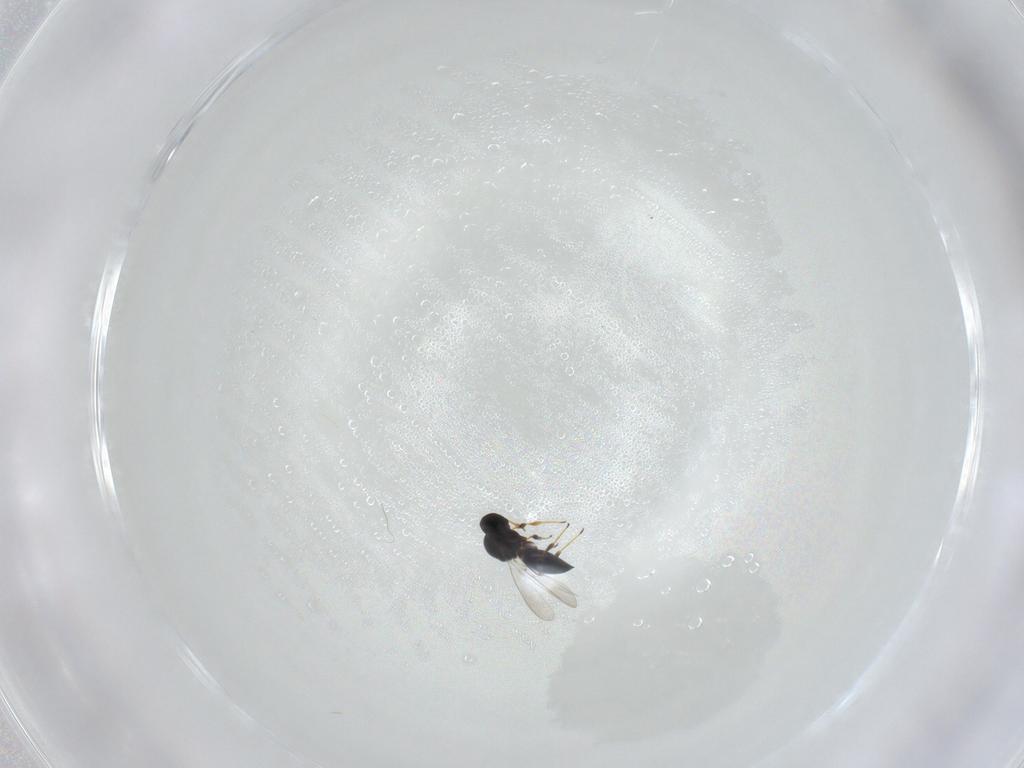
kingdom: Animalia
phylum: Arthropoda
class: Insecta
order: Hymenoptera
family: Platygastridae
